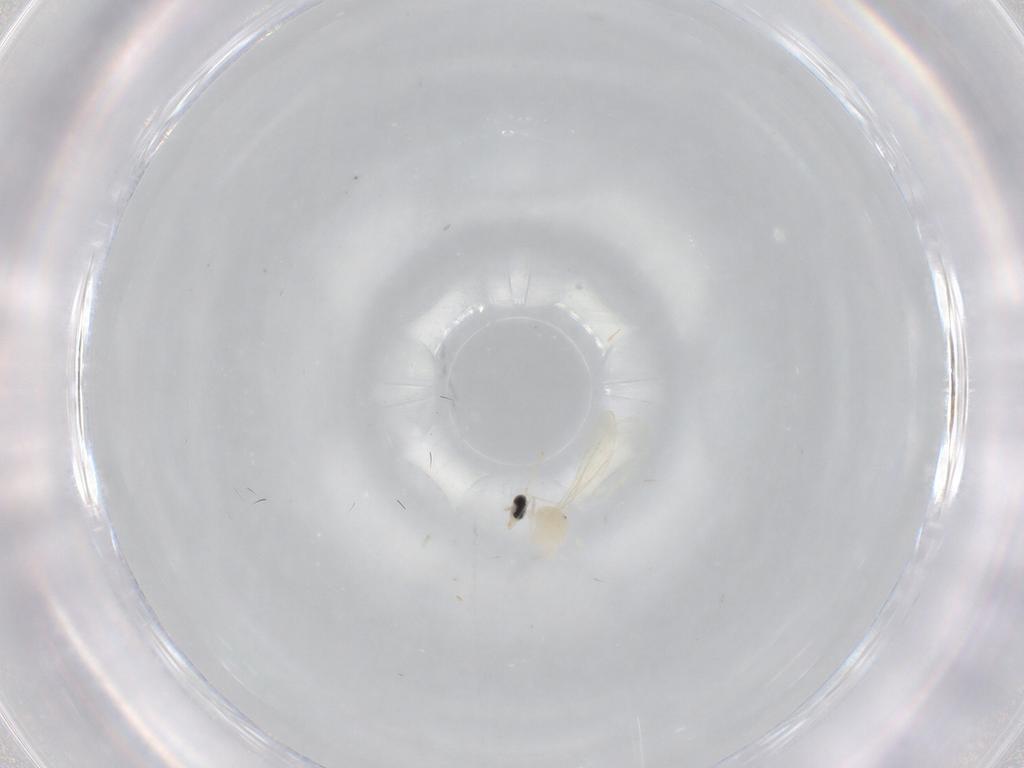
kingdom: Animalia
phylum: Arthropoda
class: Insecta
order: Diptera
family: Cecidomyiidae
